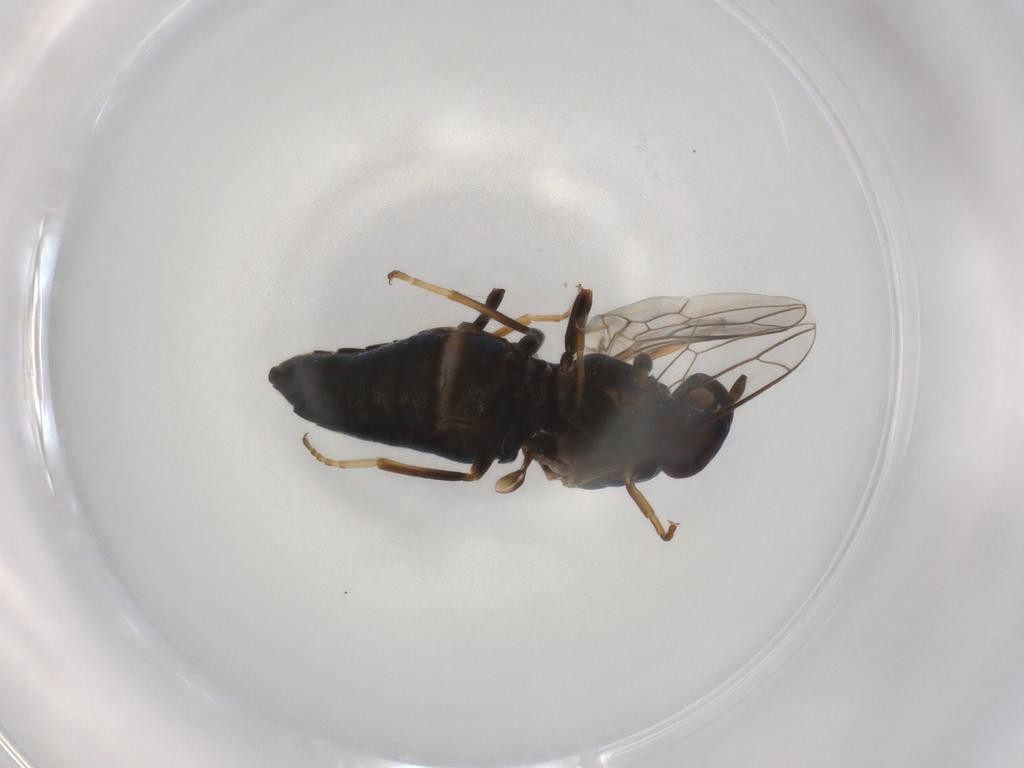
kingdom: Animalia
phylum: Arthropoda
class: Insecta
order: Diptera
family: Scenopinidae
